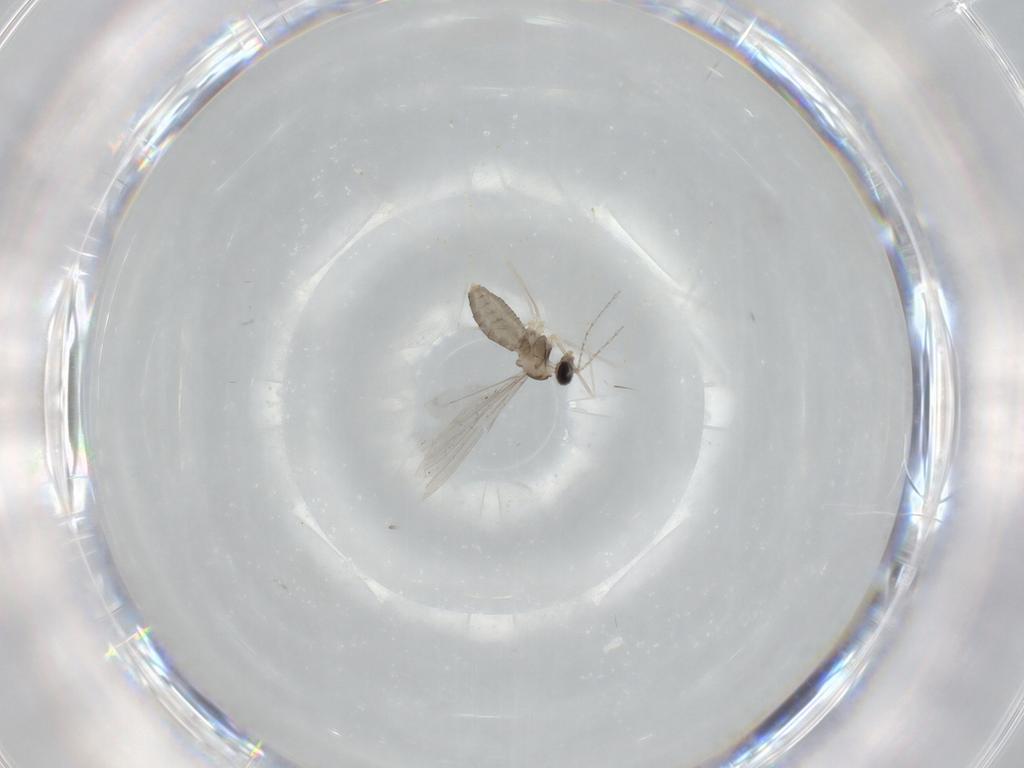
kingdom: Animalia
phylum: Arthropoda
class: Insecta
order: Diptera
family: Cecidomyiidae
